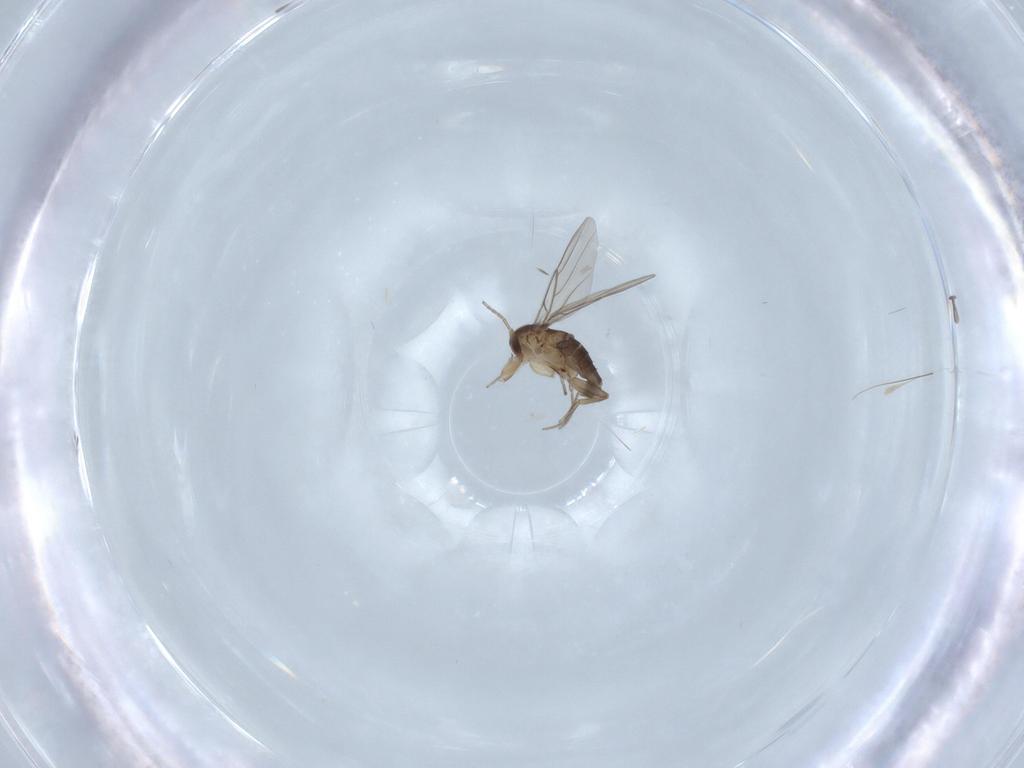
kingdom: Animalia
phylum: Arthropoda
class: Insecta
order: Diptera
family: Phoridae
